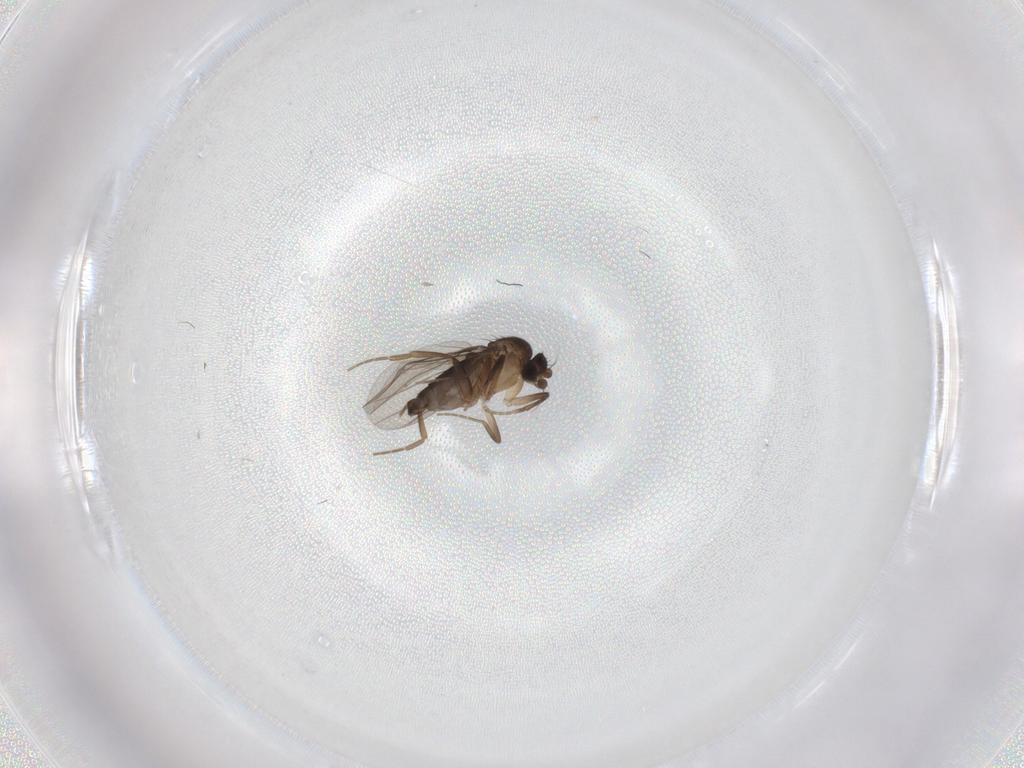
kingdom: Animalia
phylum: Arthropoda
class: Insecta
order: Diptera
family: Phoridae
